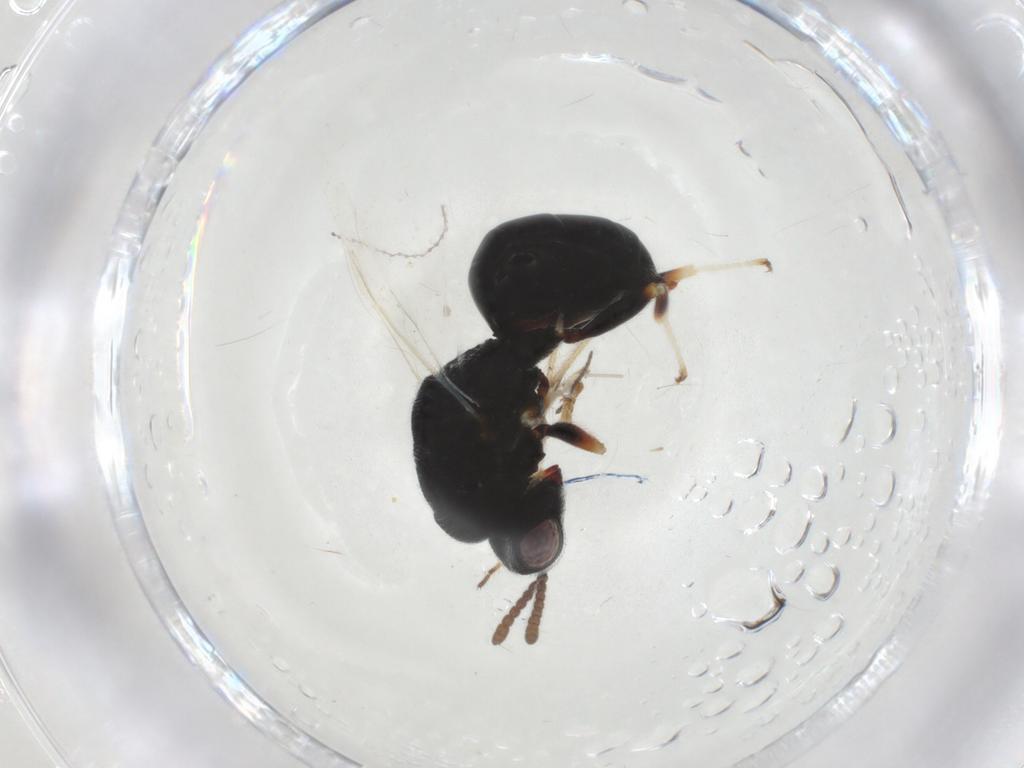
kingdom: Animalia
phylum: Arthropoda
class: Insecta
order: Hymenoptera
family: Eurytomidae
